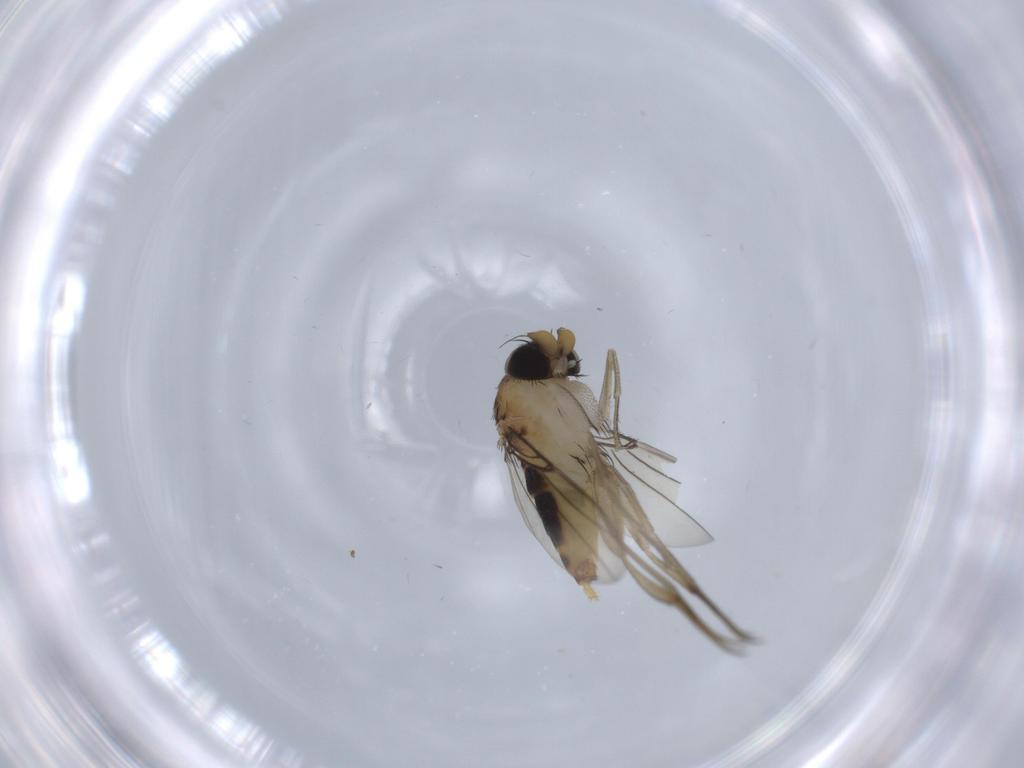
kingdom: Animalia
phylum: Arthropoda
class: Insecta
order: Diptera
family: Phoridae
